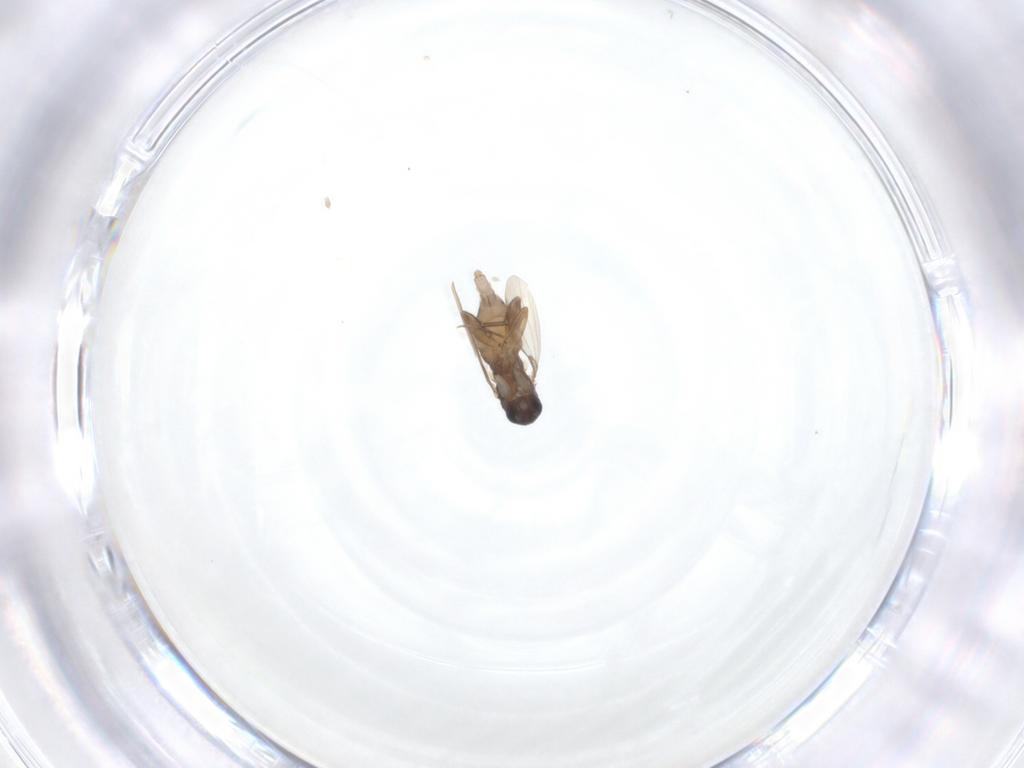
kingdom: Animalia
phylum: Arthropoda
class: Insecta
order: Diptera
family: Phoridae
